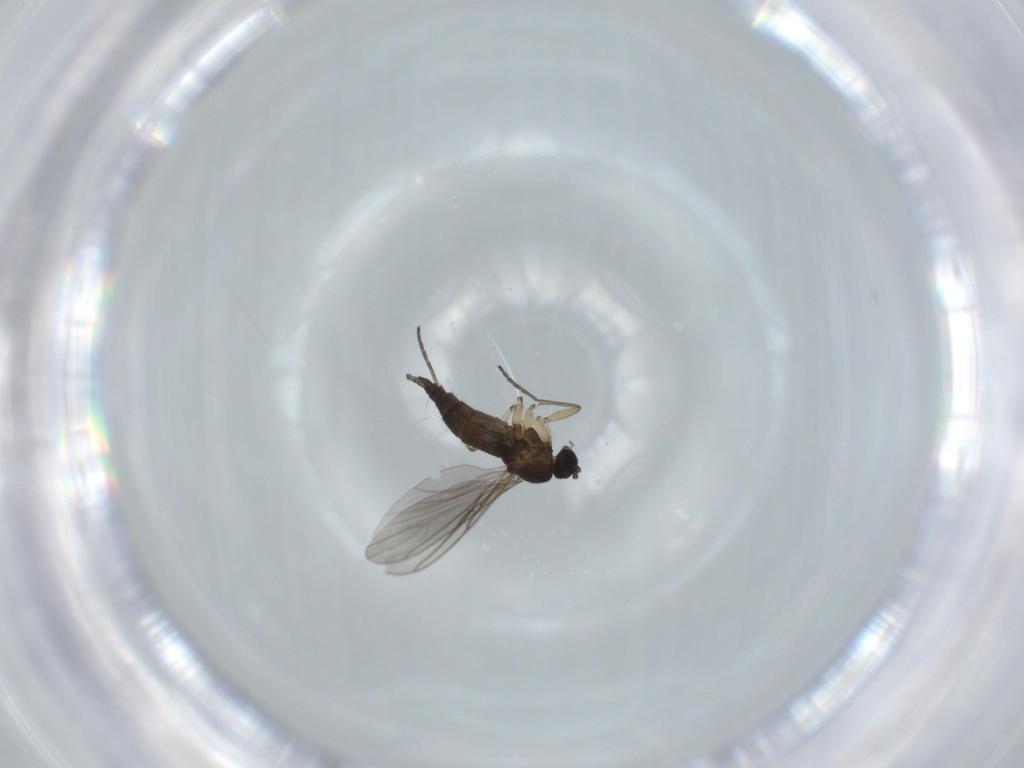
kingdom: Animalia
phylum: Arthropoda
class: Insecta
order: Diptera
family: Sciaridae
